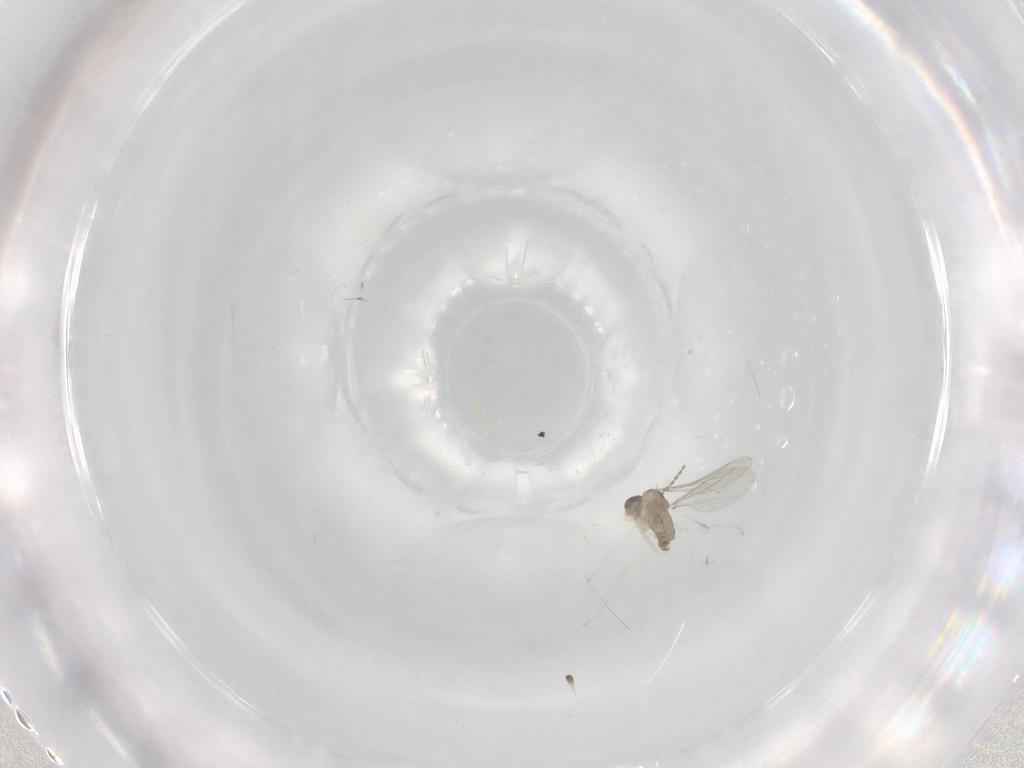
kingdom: Animalia
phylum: Arthropoda
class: Insecta
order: Diptera
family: Cecidomyiidae
